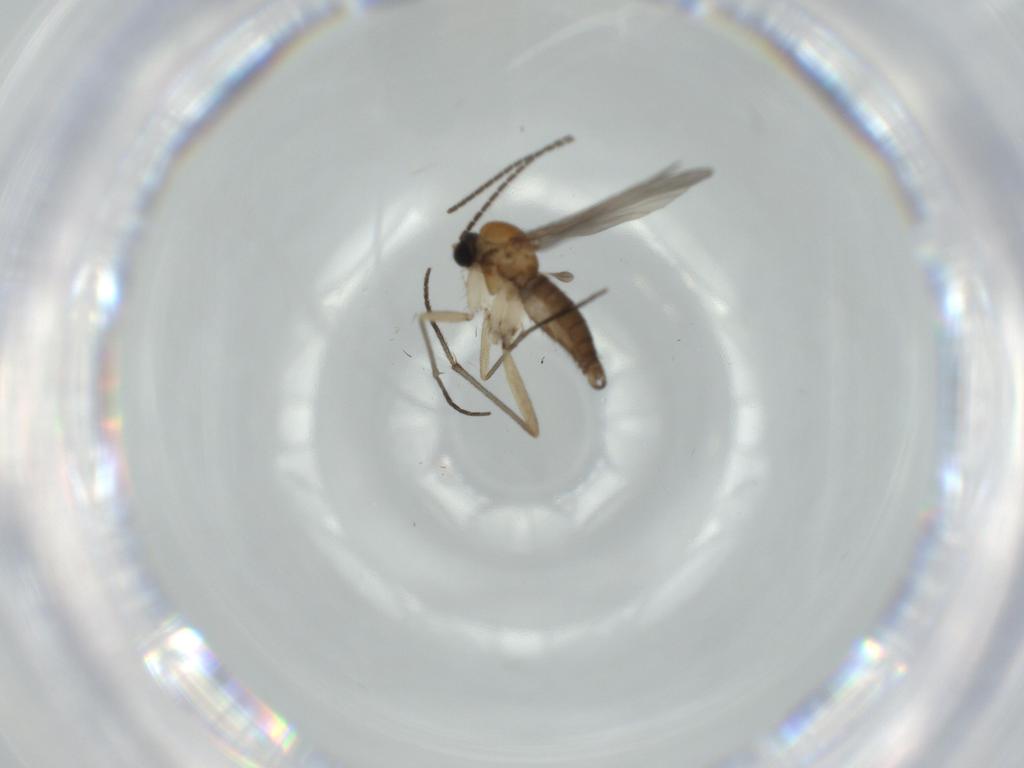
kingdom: Animalia
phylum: Arthropoda
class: Insecta
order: Diptera
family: Sciaridae
